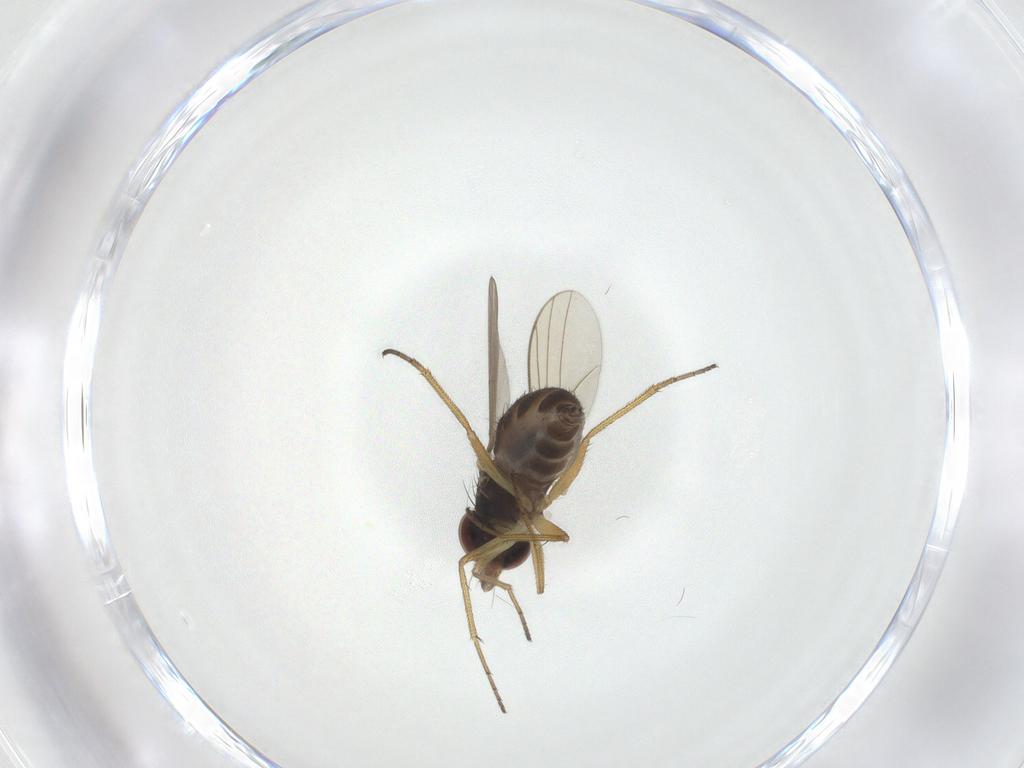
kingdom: Animalia
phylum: Arthropoda
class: Insecta
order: Diptera
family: Dolichopodidae
